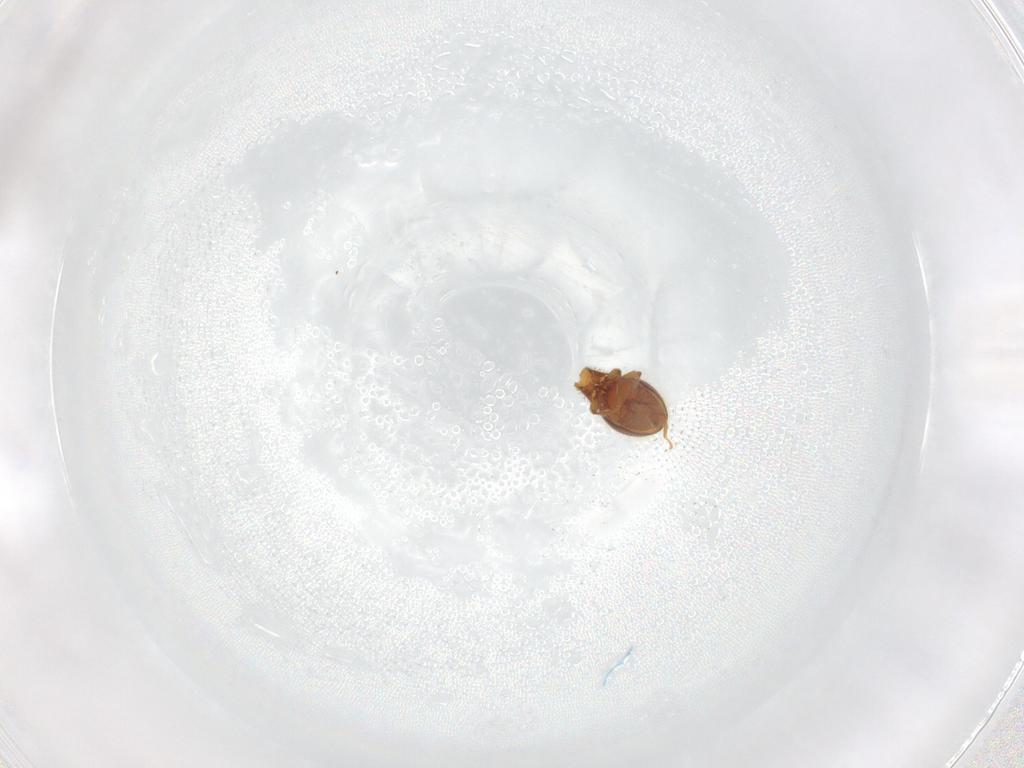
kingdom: Animalia
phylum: Arthropoda
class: Insecta
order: Coleoptera
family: Staphylinidae
